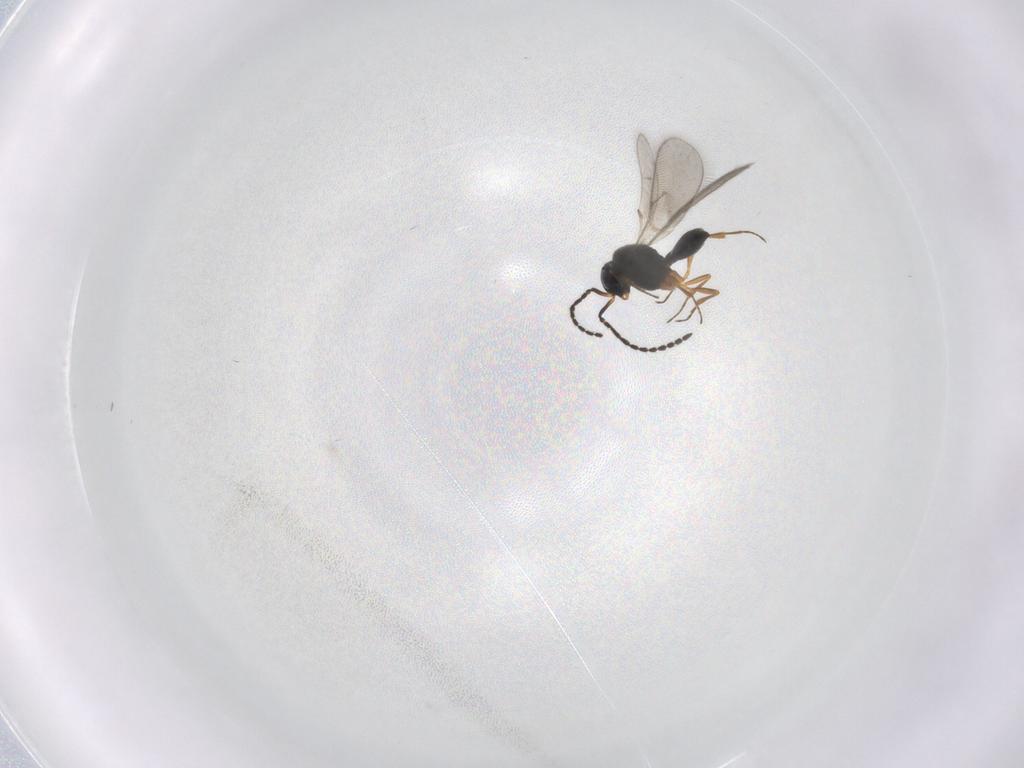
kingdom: Animalia
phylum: Arthropoda
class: Insecta
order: Hymenoptera
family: Scelionidae
